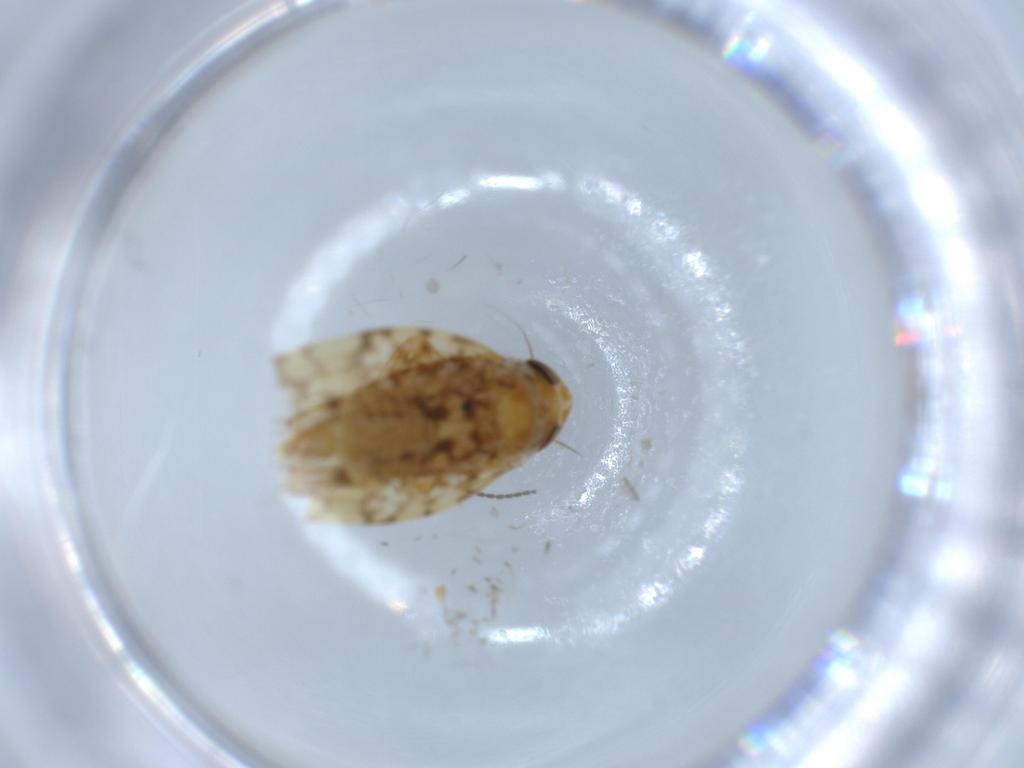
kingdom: Animalia
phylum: Arthropoda
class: Insecta
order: Hemiptera
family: Cicadellidae
